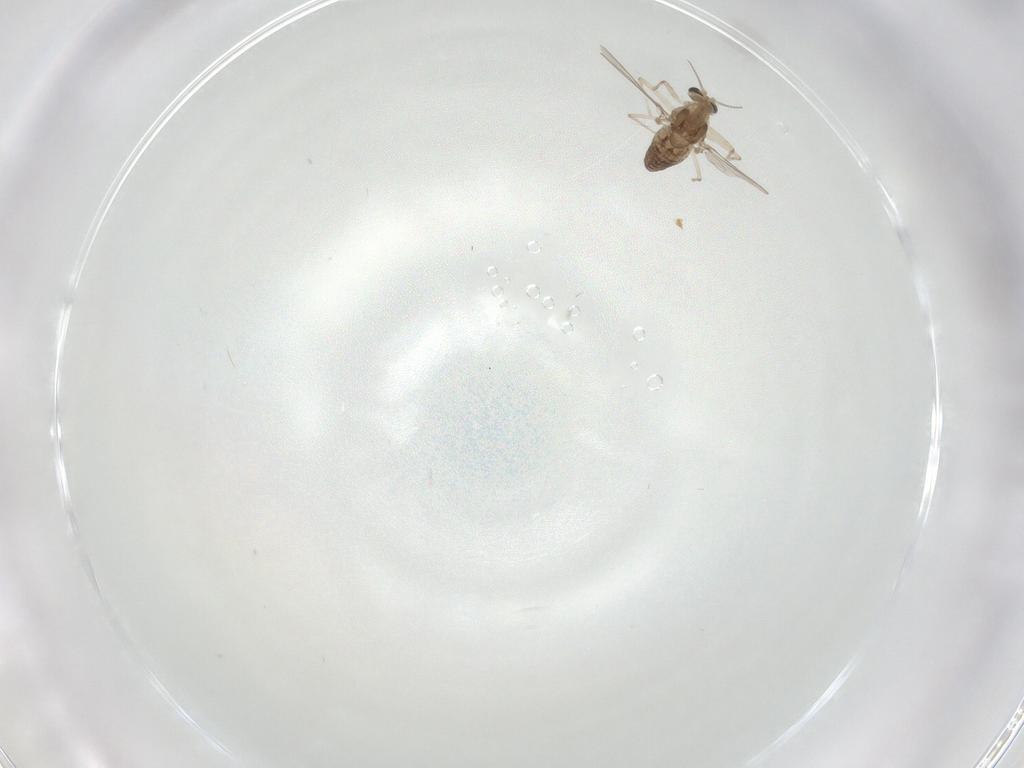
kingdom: Animalia
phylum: Arthropoda
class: Insecta
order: Diptera
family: Chironomidae
